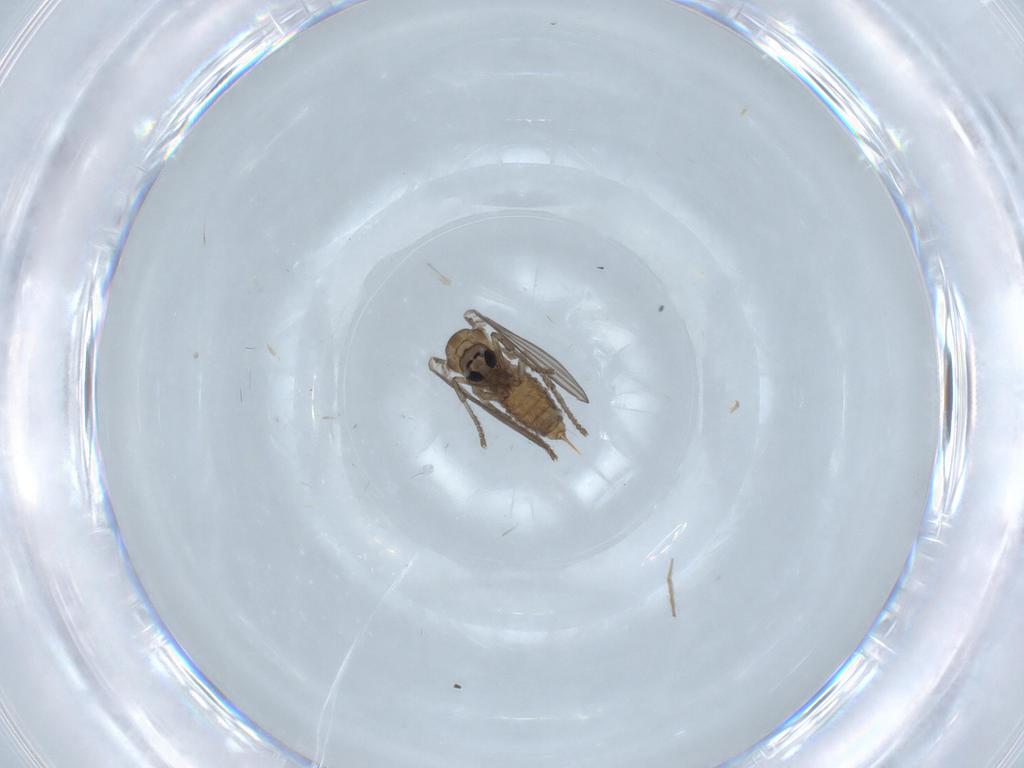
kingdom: Animalia
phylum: Arthropoda
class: Insecta
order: Diptera
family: Psychodidae
